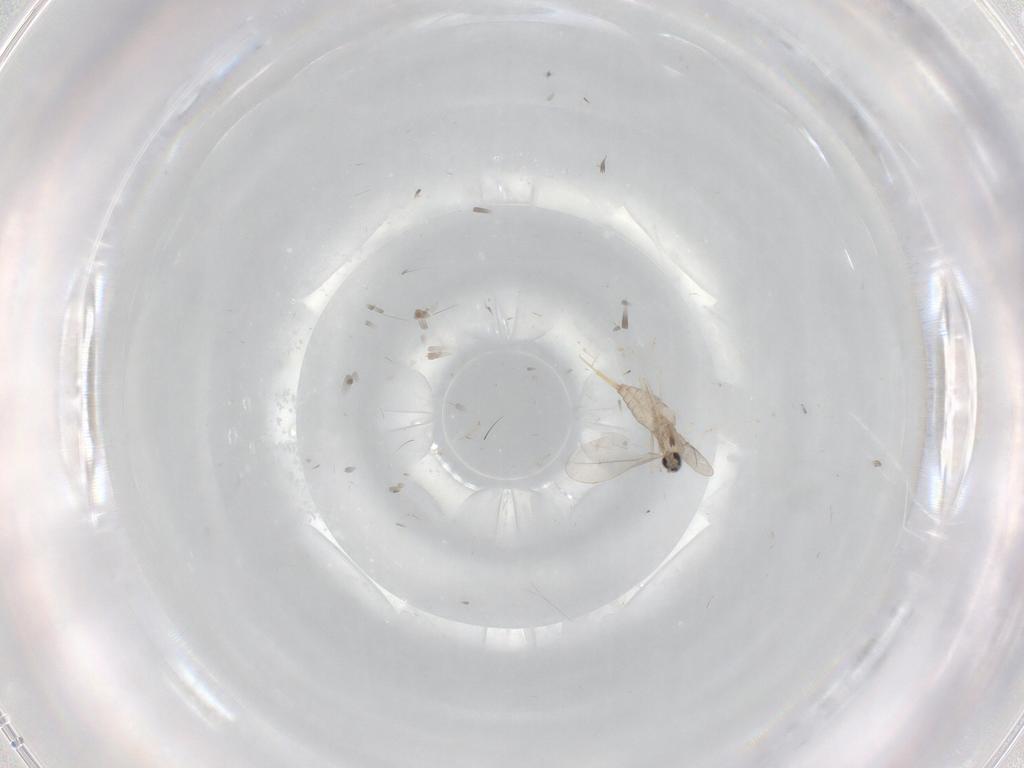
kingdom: Animalia
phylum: Arthropoda
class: Insecta
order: Diptera
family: Cecidomyiidae
